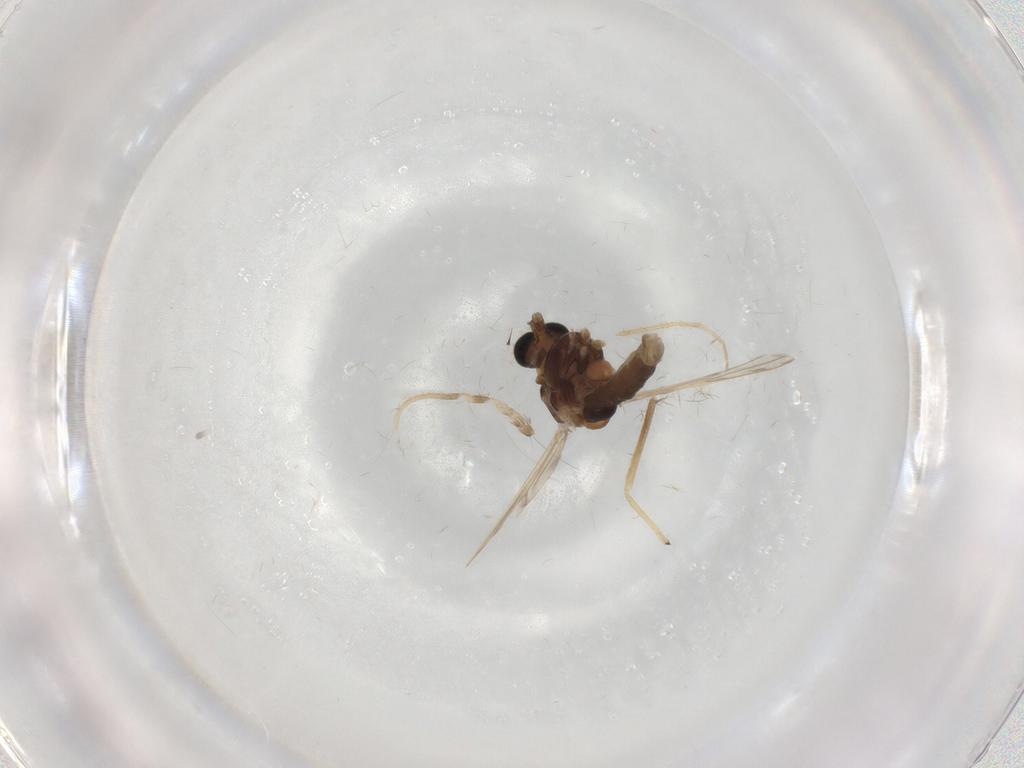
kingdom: Animalia
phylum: Arthropoda
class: Insecta
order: Diptera
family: Chironomidae
